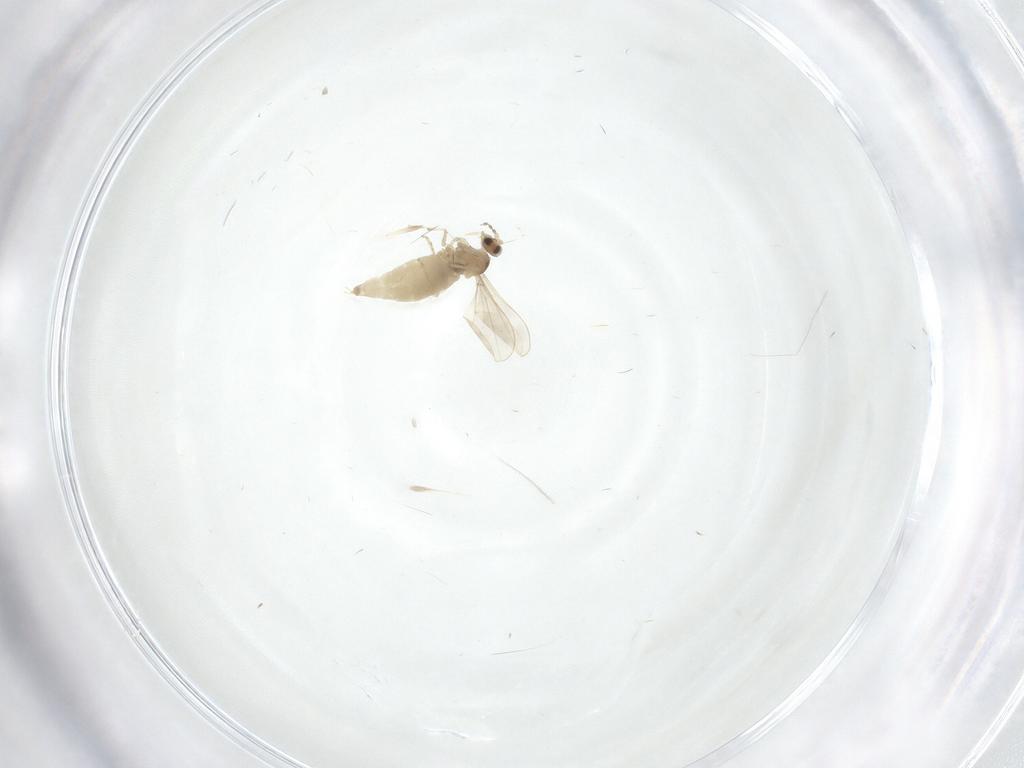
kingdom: Animalia
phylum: Arthropoda
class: Insecta
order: Diptera
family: Cecidomyiidae
